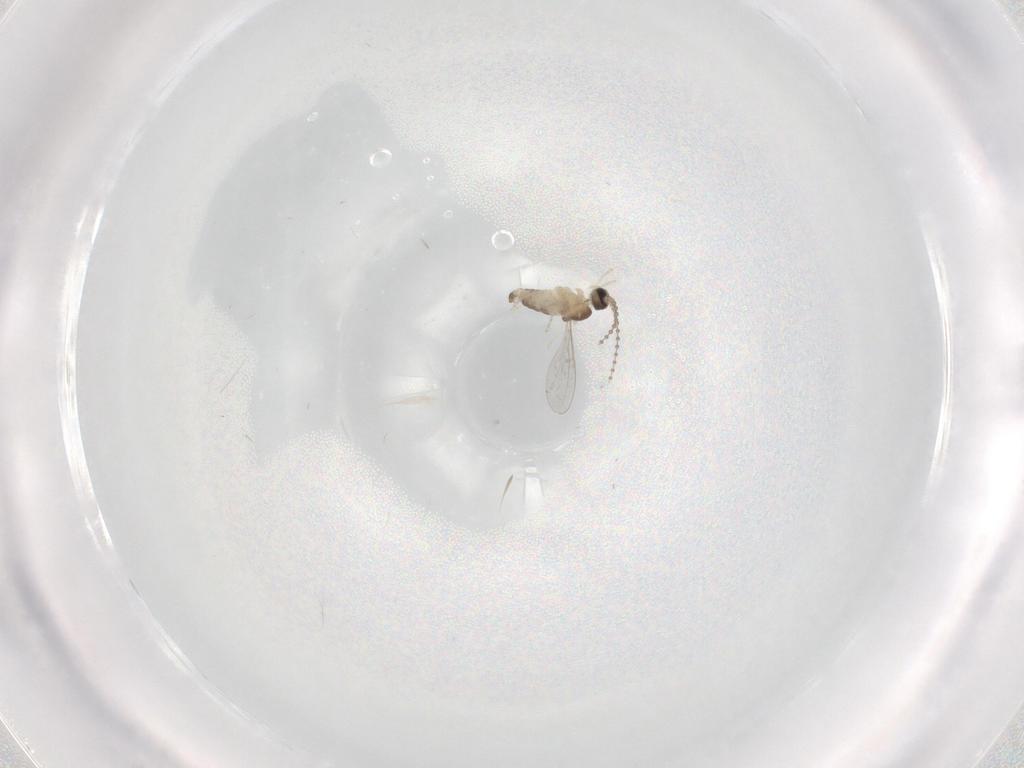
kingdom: Animalia
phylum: Arthropoda
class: Insecta
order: Diptera
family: Cecidomyiidae
